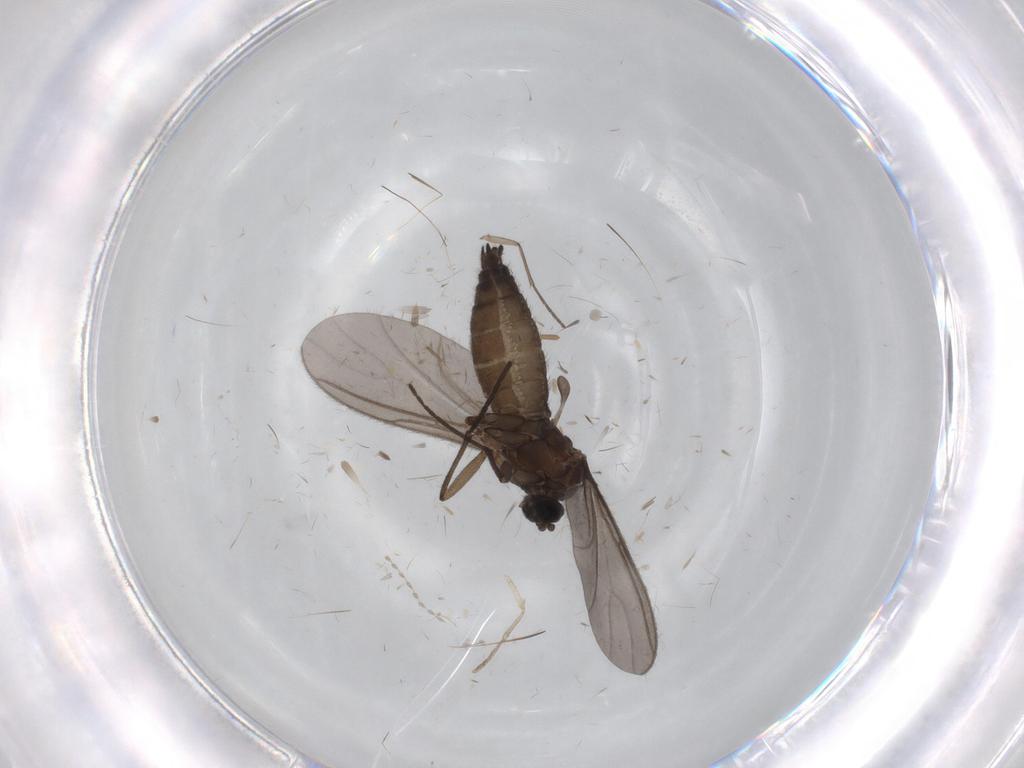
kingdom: Animalia
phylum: Arthropoda
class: Insecta
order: Diptera
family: Sciaridae
